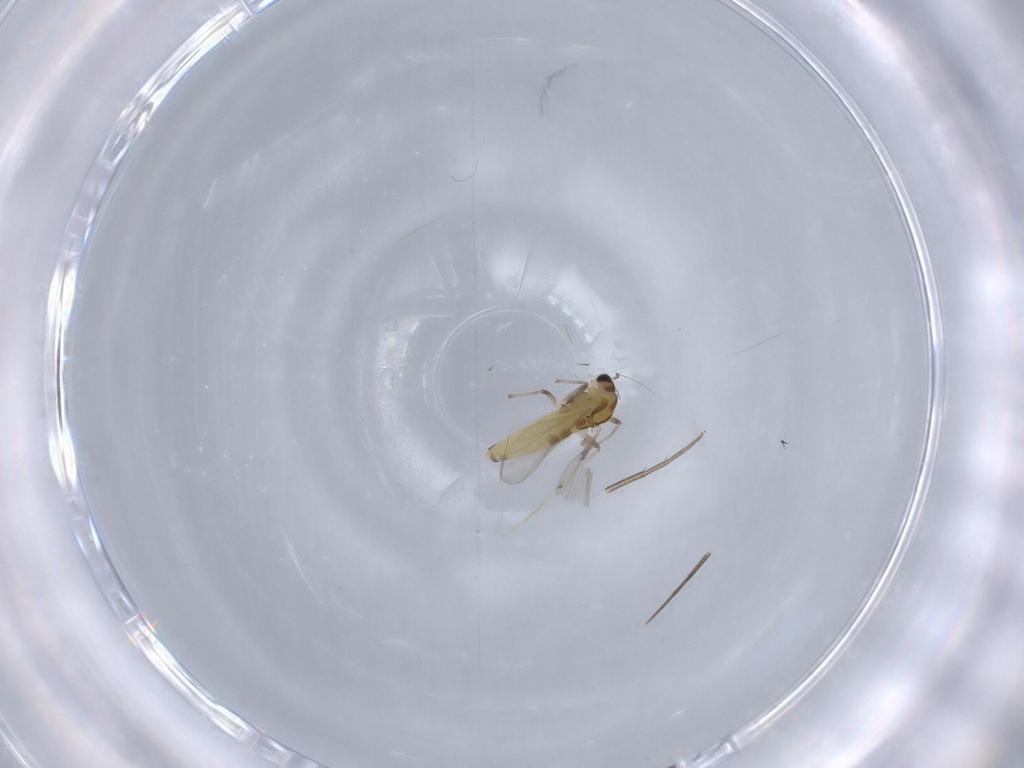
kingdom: Animalia
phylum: Arthropoda
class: Insecta
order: Diptera
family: Chironomidae
